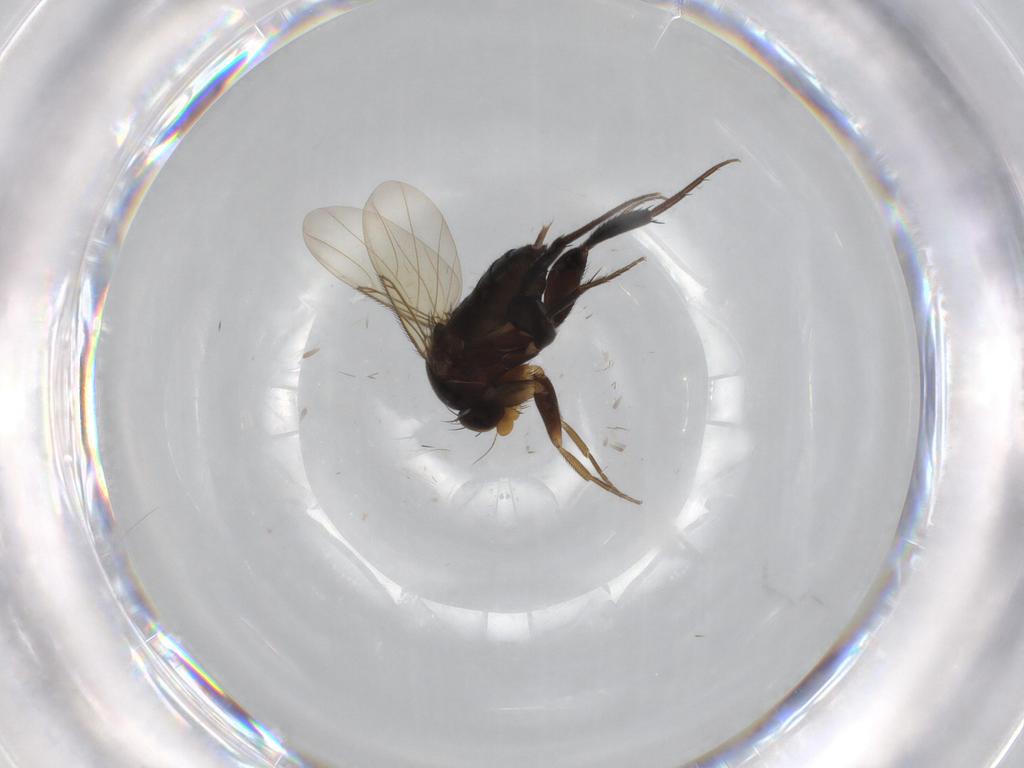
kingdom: Animalia
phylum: Arthropoda
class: Insecta
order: Diptera
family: Phoridae
